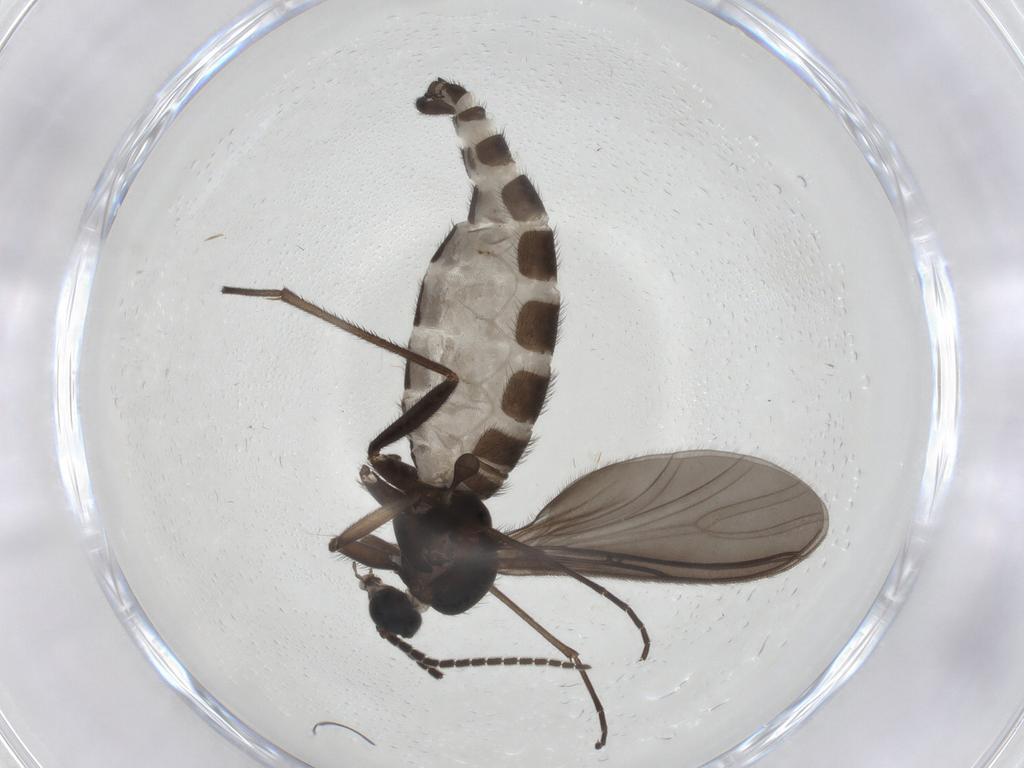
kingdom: Animalia
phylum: Arthropoda
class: Insecta
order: Diptera
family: Sciaridae
